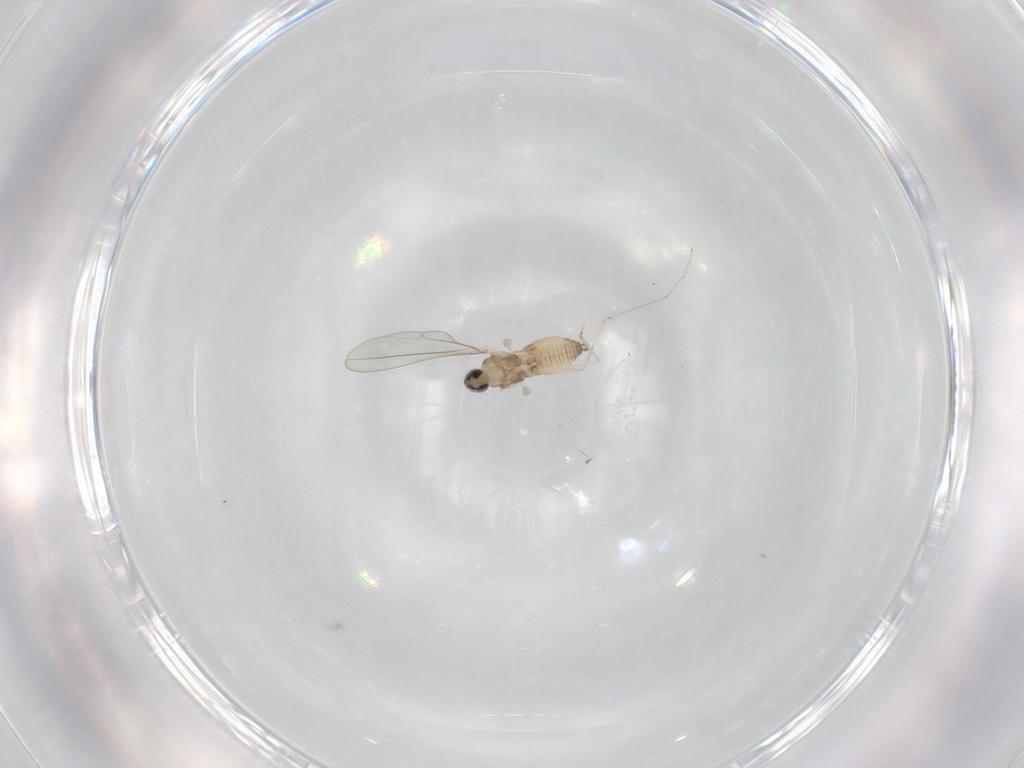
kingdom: Animalia
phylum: Arthropoda
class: Insecta
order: Diptera
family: Cecidomyiidae
